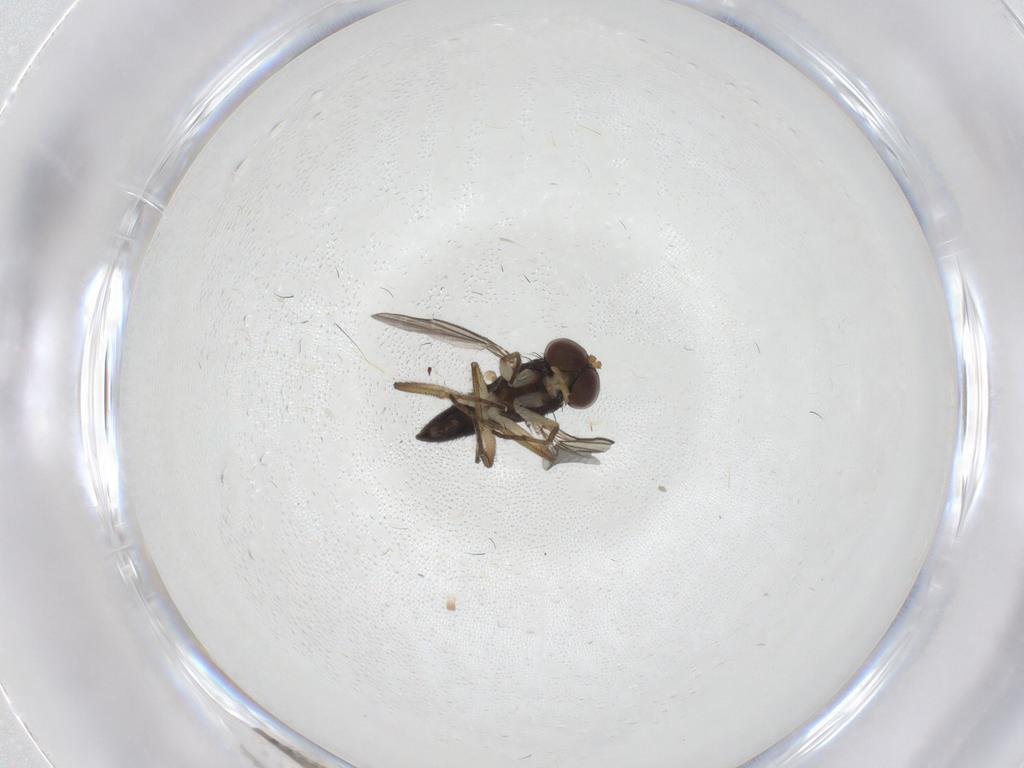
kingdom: Animalia
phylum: Arthropoda
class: Insecta
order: Diptera
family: Dolichopodidae
